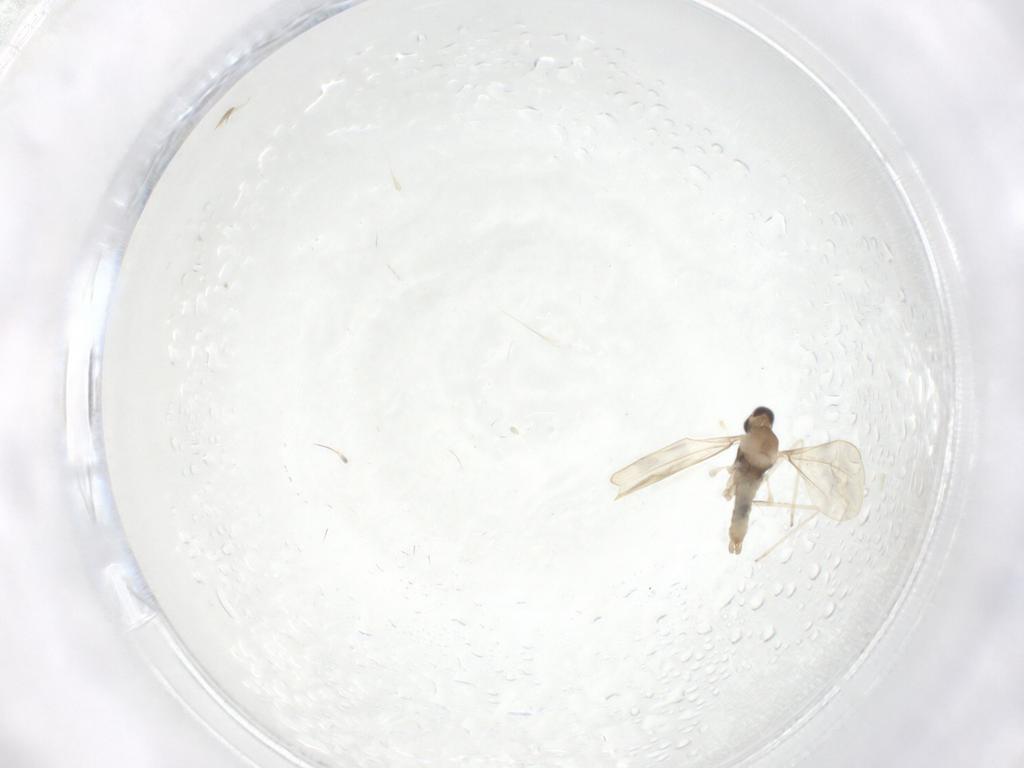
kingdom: Animalia
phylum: Arthropoda
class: Insecta
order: Diptera
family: Cecidomyiidae
